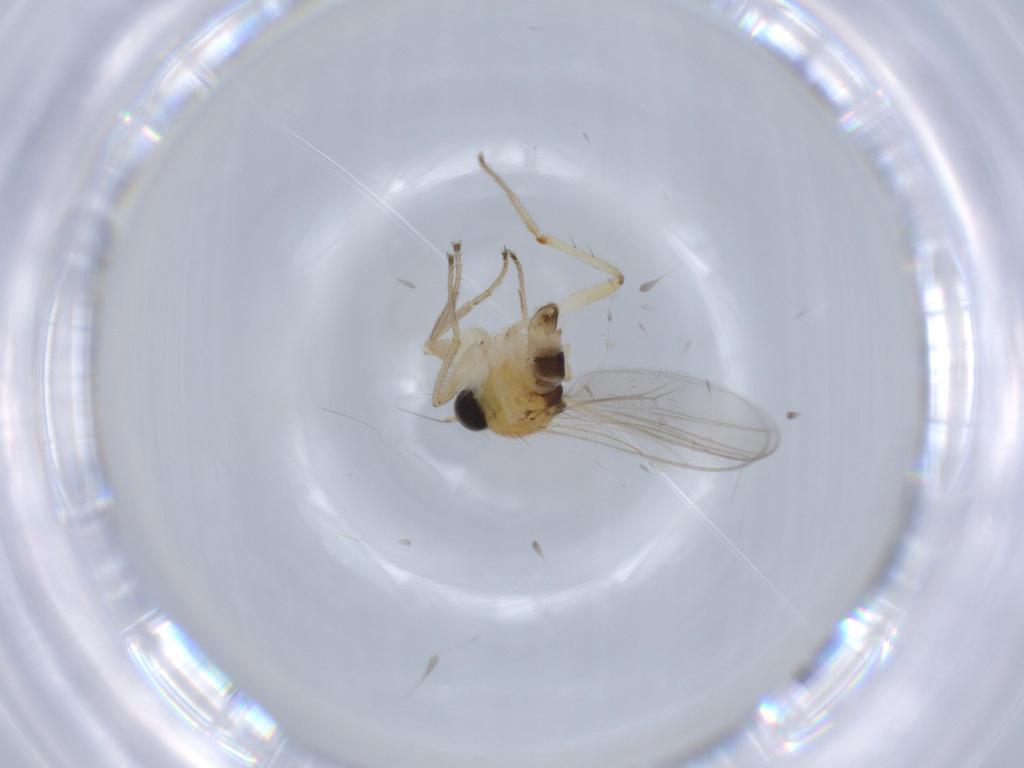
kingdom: Animalia
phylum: Arthropoda
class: Insecta
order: Diptera
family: Hybotidae
